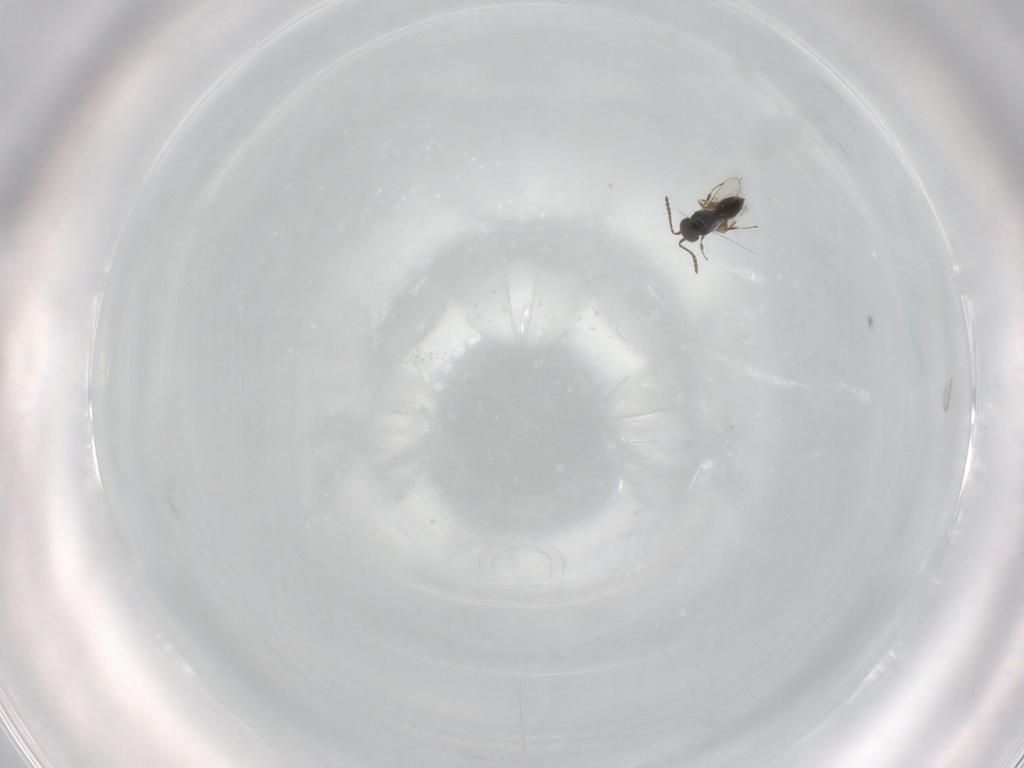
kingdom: Animalia
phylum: Arthropoda
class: Insecta
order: Hymenoptera
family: Scelionidae
